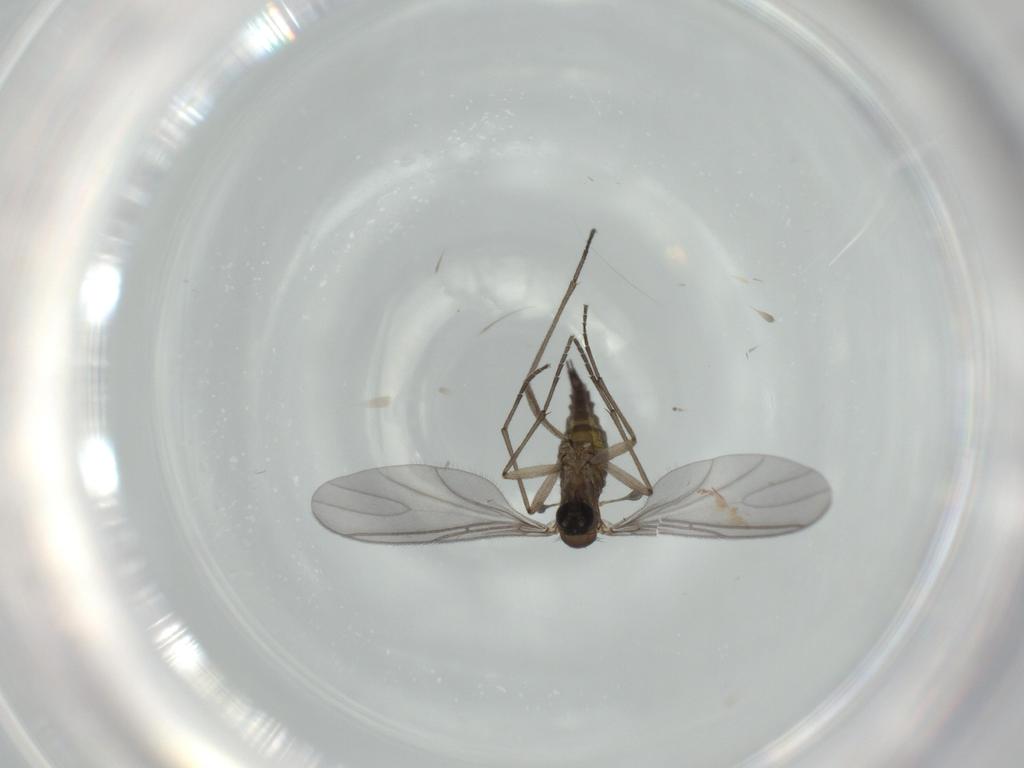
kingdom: Animalia
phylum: Arthropoda
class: Insecta
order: Diptera
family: Sciaridae
